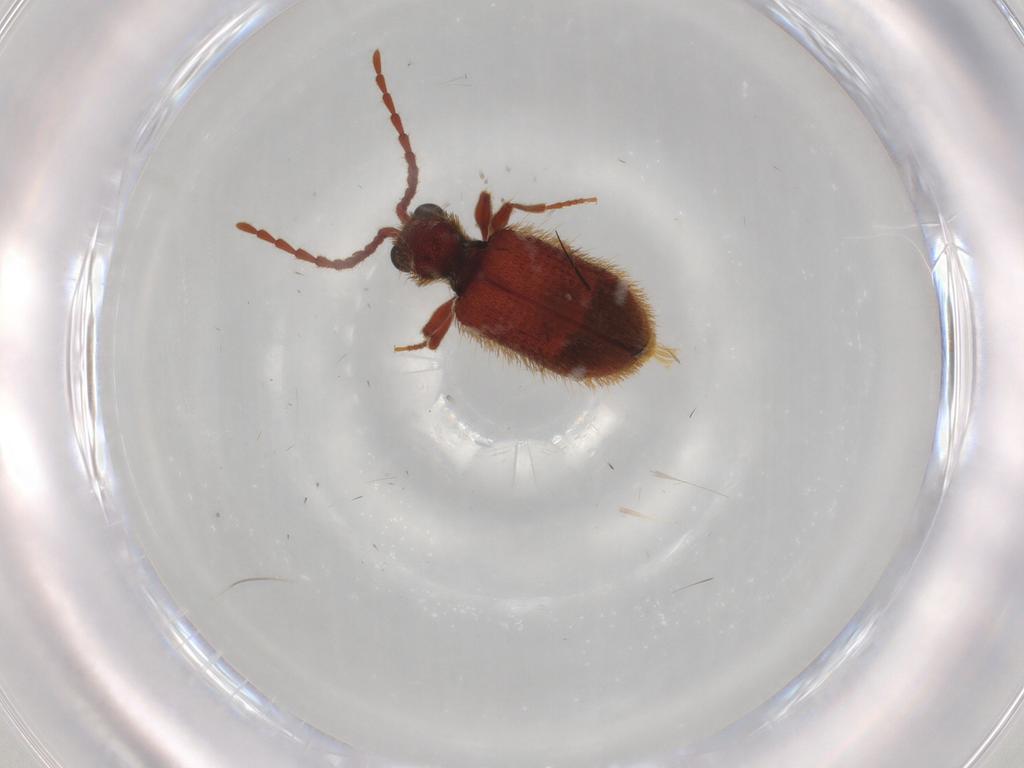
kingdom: Animalia
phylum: Arthropoda
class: Insecta
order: Coleoptera
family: Ptinidae
